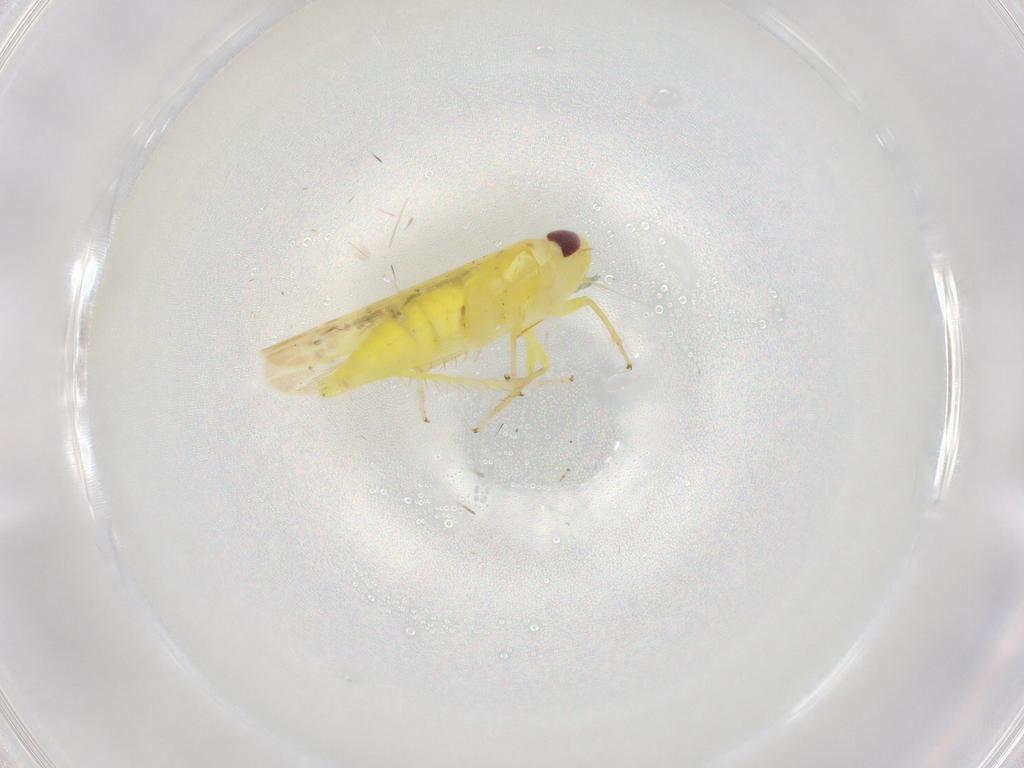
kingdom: Animalia
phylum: Arthropoda
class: Insecta
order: Hemiptera
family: Cicadellidae
